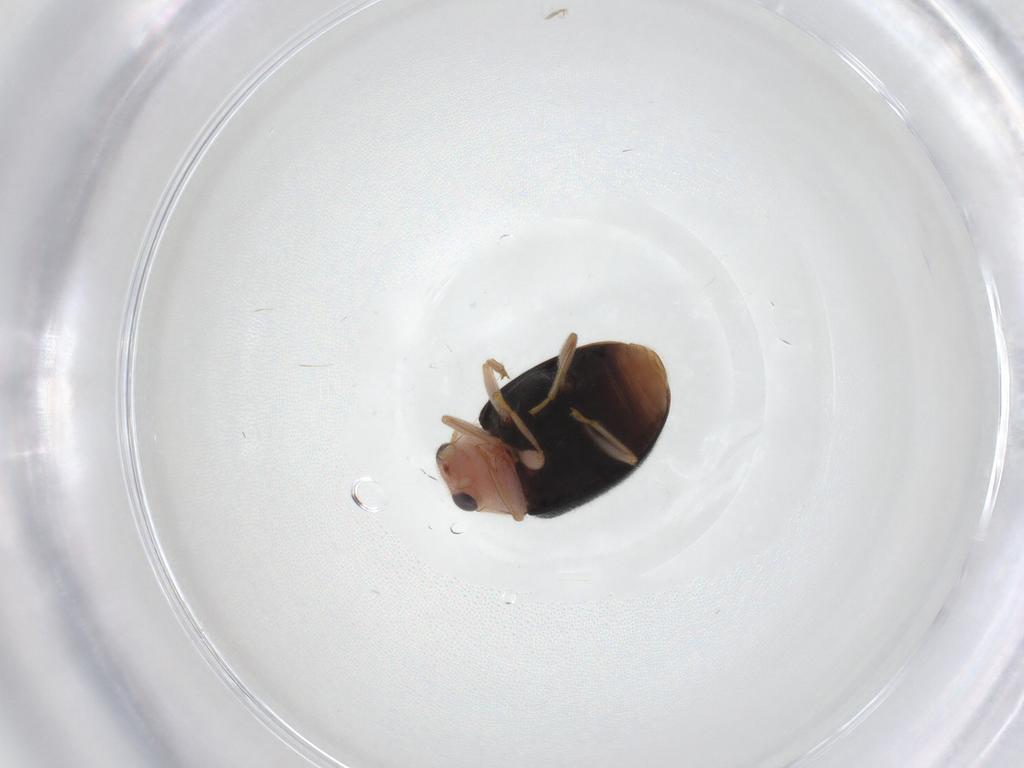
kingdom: Animalia
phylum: Arthropoda
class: Insecta
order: Coleoptera
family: Coccinellidae
